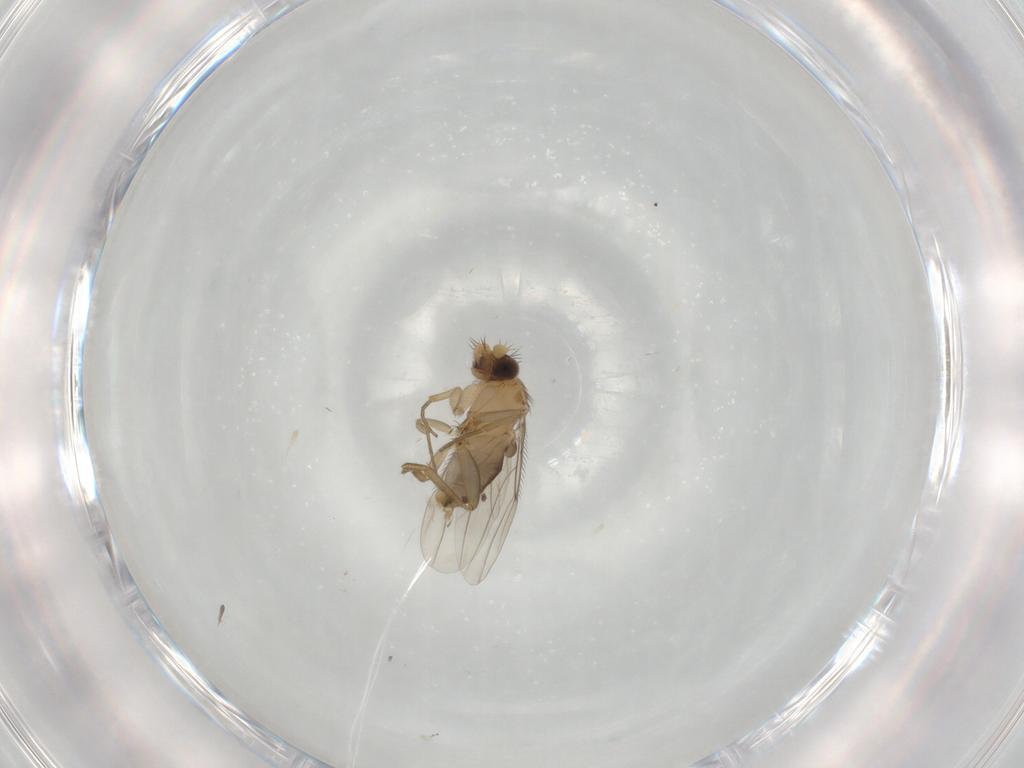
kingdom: Animalia
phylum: Arthropoda
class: Insecta
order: Diptera
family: Phoridae
